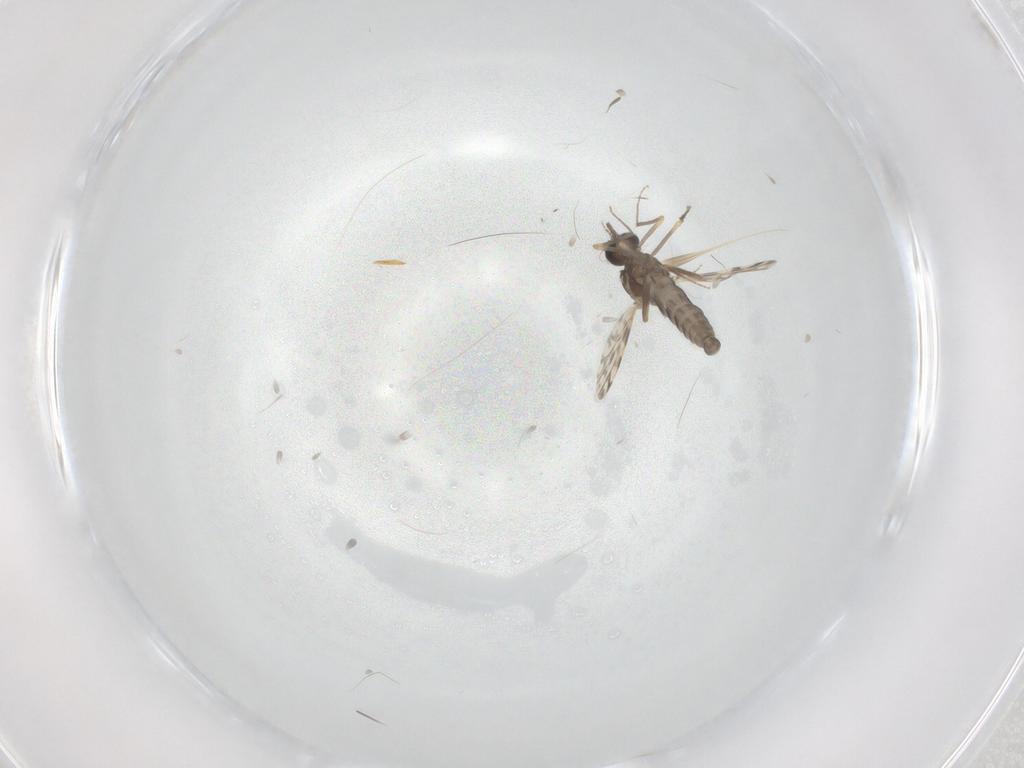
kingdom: Animalia
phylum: Arthropoda
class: Insecta
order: Diptera
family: Ceratopogonidae
